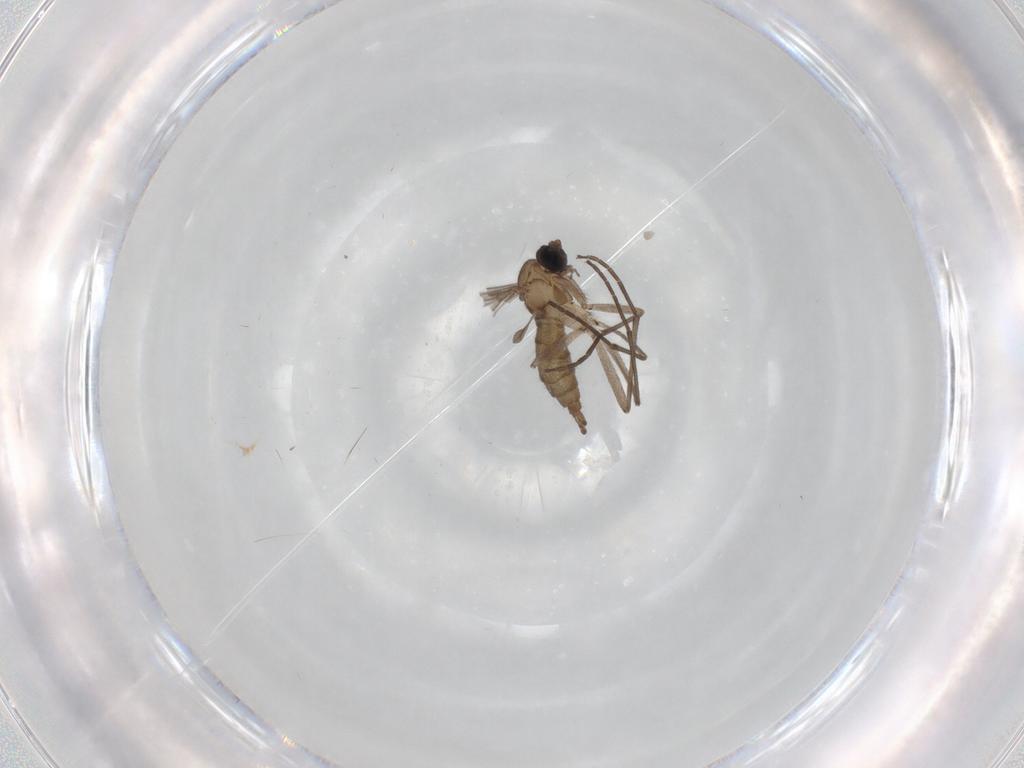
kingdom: Animalia
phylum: Arthropoda
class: Insecta
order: Diptera
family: Sciaridae
